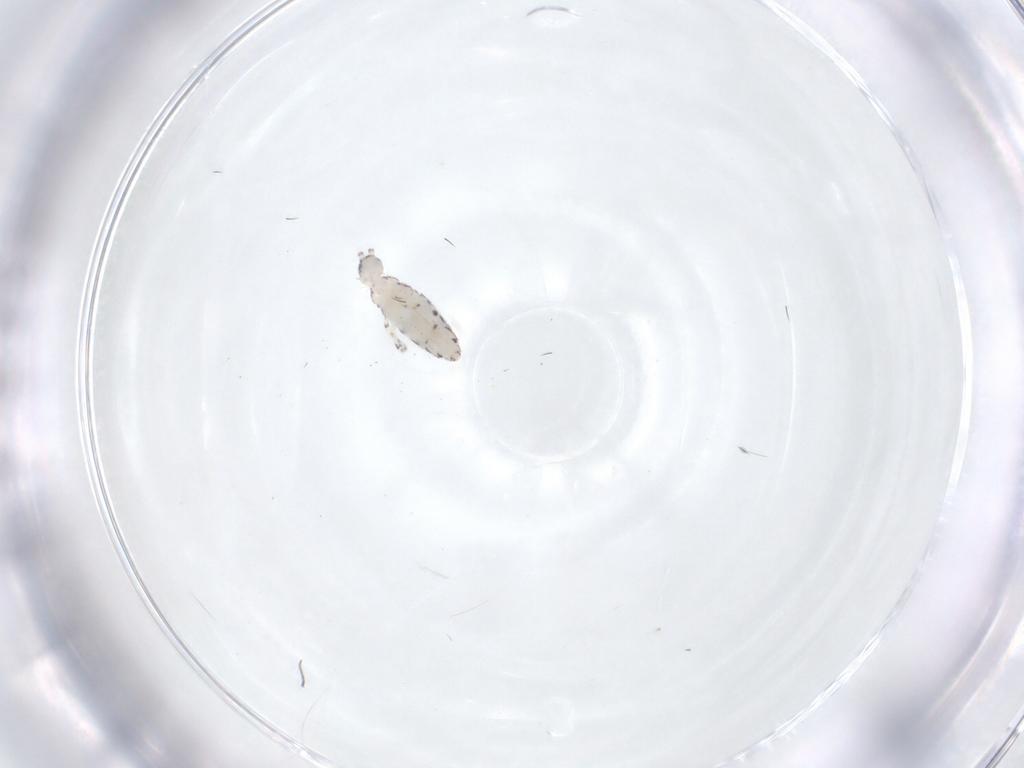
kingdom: Animalia
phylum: Arthropoda
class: Collembola
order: Entomobryomorpha
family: Entomobryidae
